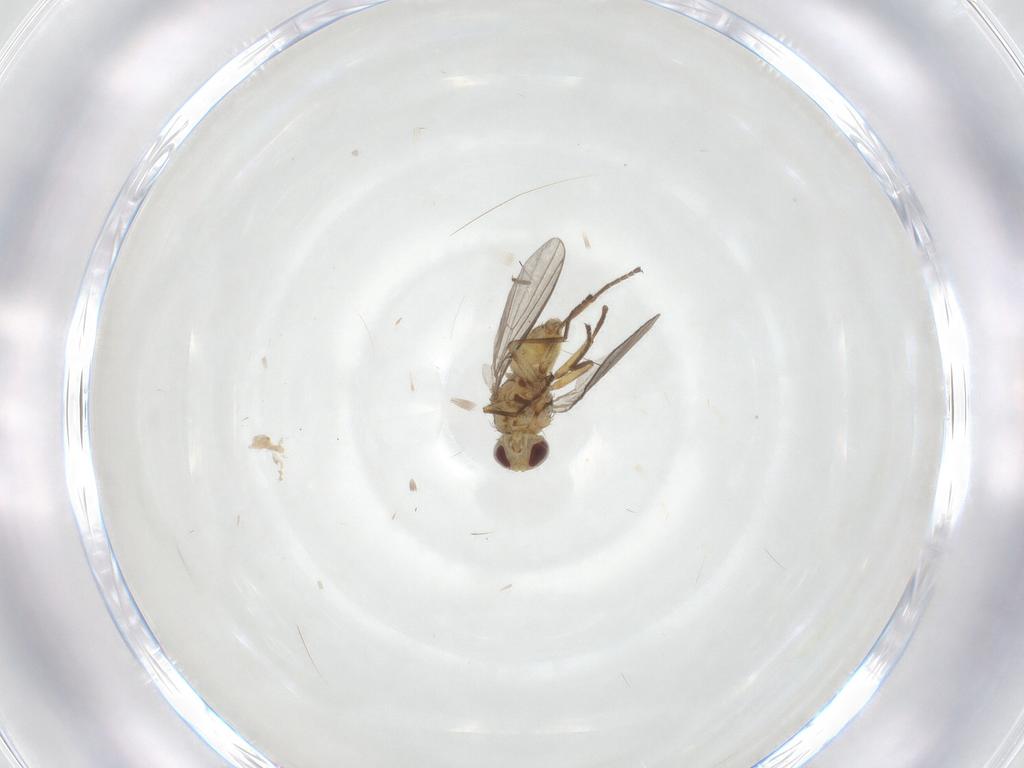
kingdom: Animalia
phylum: Arthropoda
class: Insecta
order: Diptera
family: Agromyzidae
